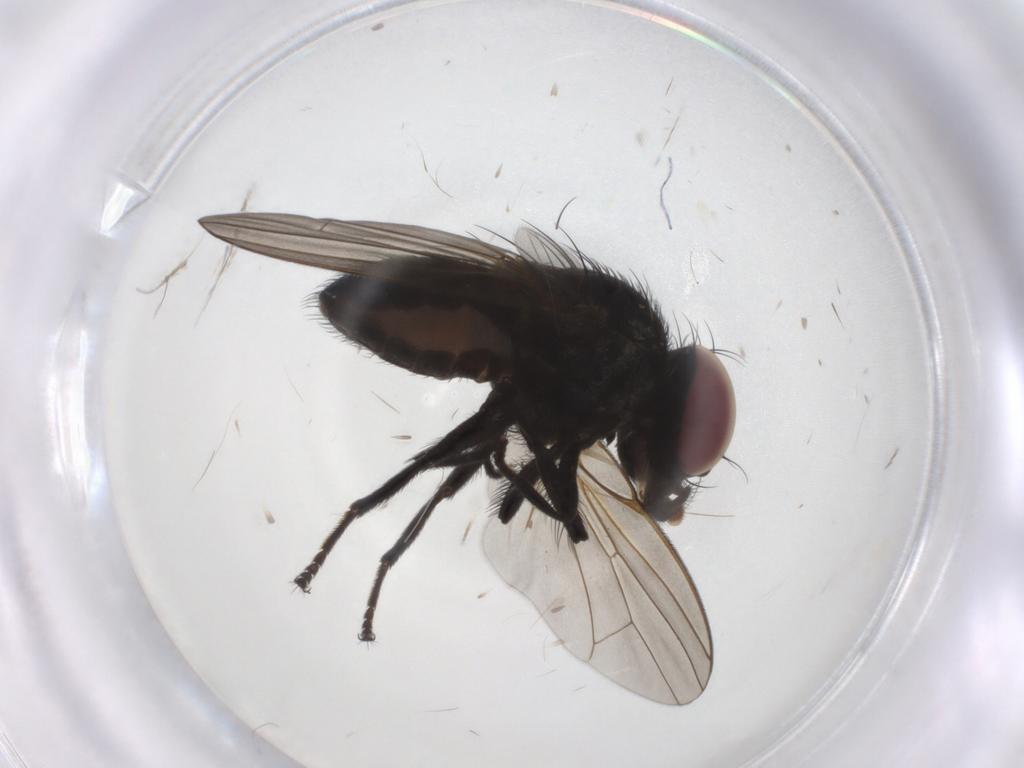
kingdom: Animalia
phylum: Arthropoda
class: Insecta
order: Diptera
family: Lonchaeidae
